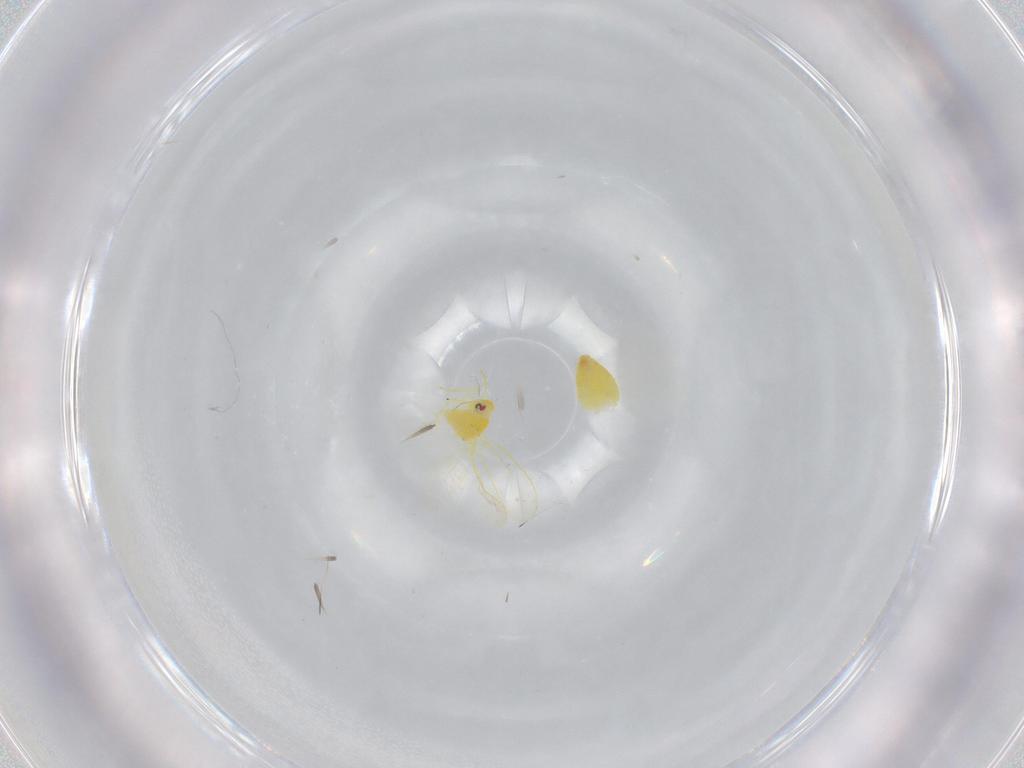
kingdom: Animalia
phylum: Arthropoda
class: Insecta
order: Hemiptera
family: Aleyrodidae
